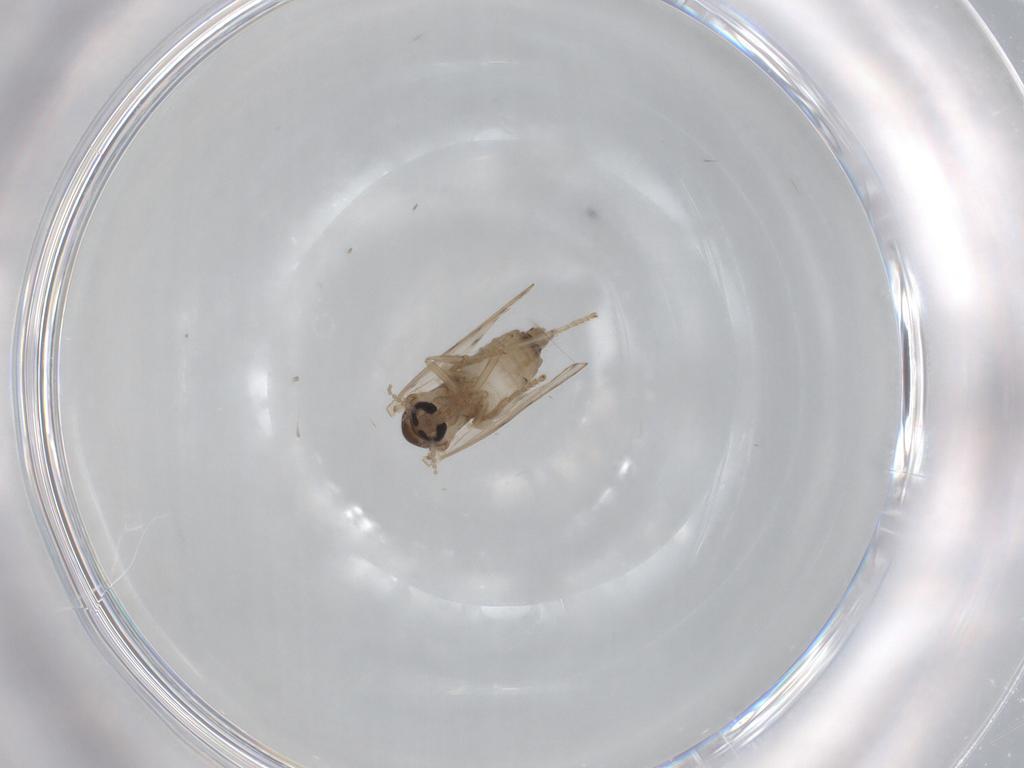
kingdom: Animalia
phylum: Arthropoda
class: Insecta
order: Diptera
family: Psychodidae
